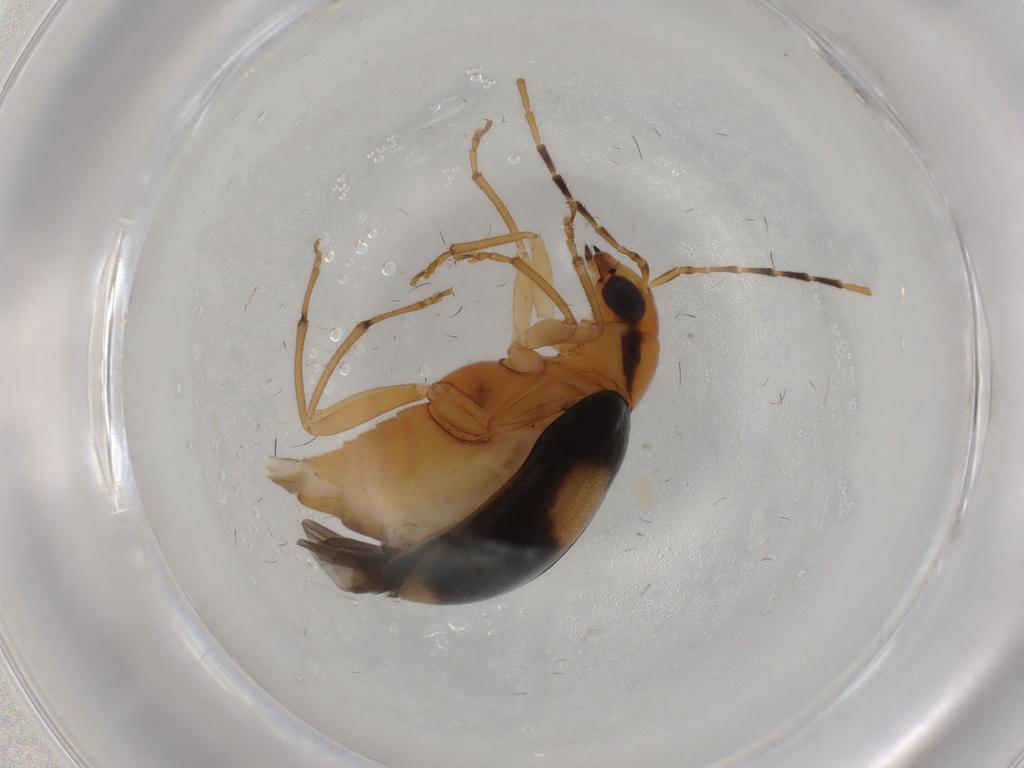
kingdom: Animalia
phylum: Arthropoda
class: Insecta
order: Coleoptera
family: Chrysomelidae
